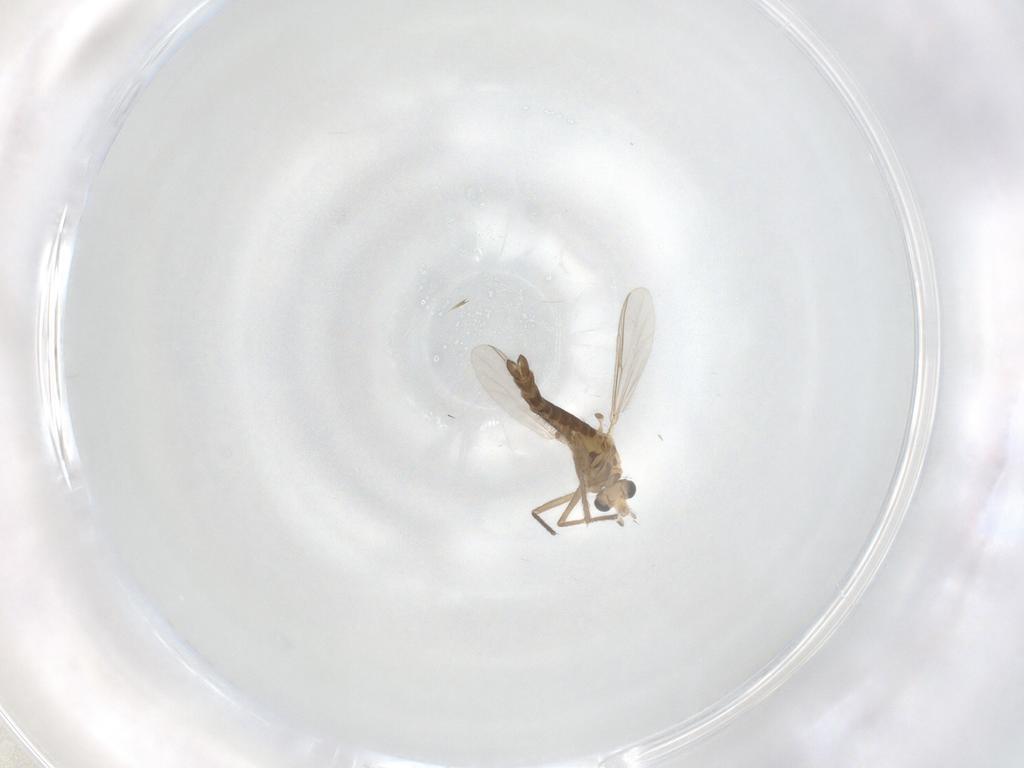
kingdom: Animalia
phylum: Arthropoda
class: Insecta
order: Diptera
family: Chironomidae
